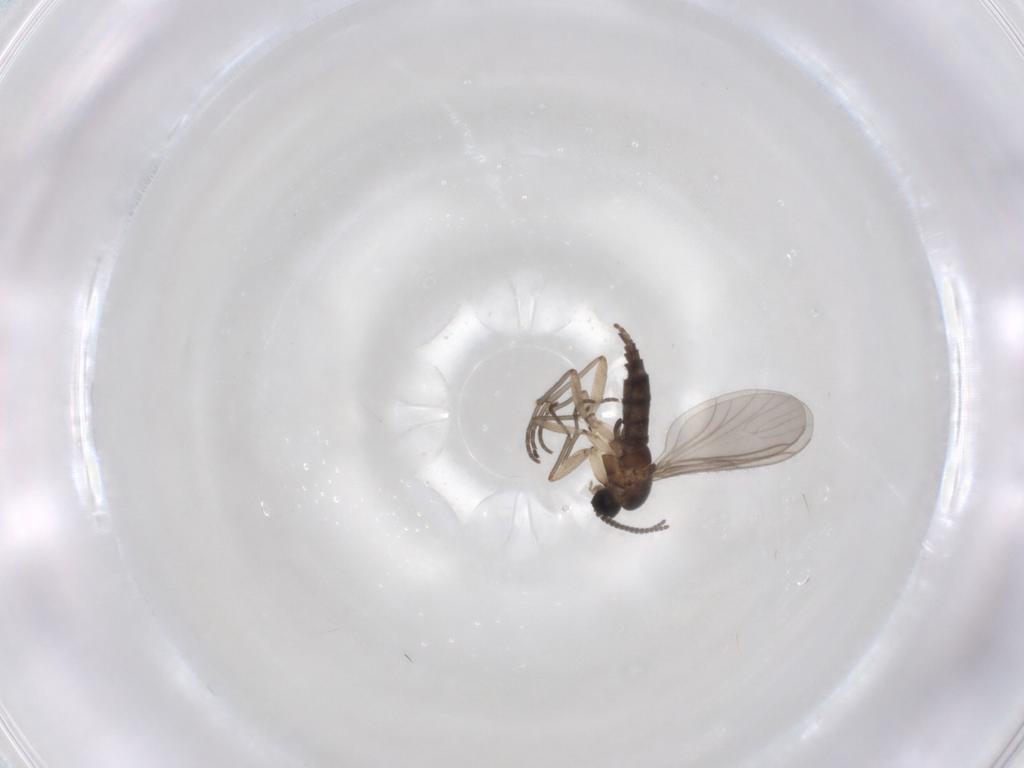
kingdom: Animalia
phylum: Arthropoda
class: Insecta
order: Diptera
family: Sciaridae
